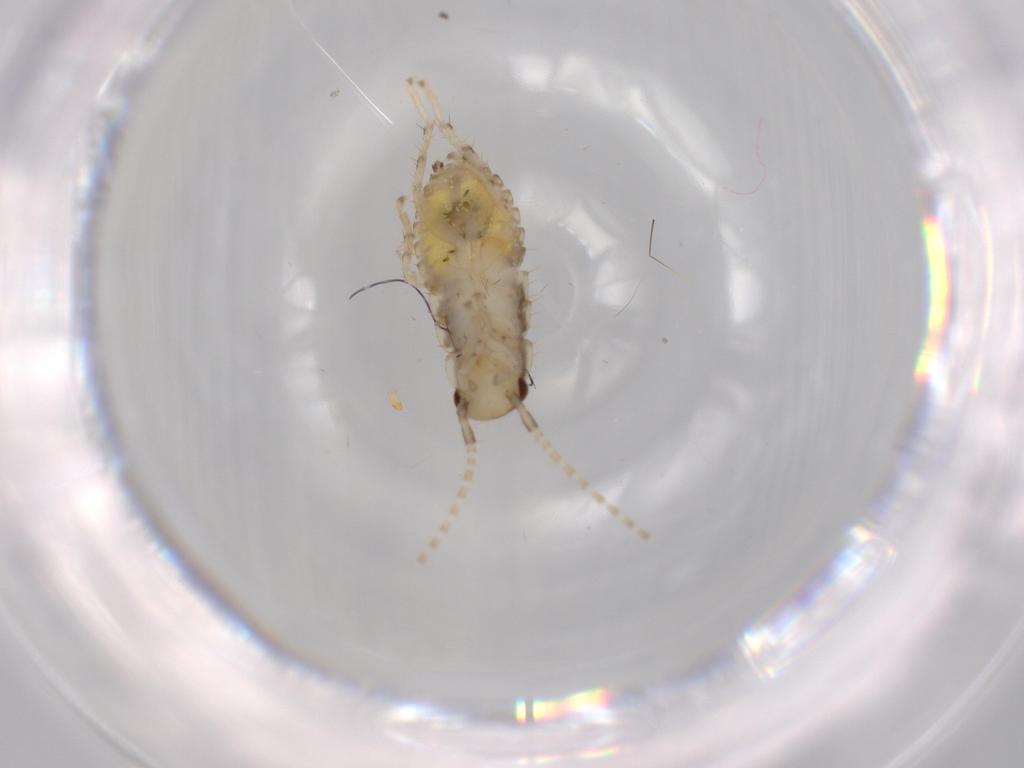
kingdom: Animalia
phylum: Arthropoda
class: Insecta
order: Blattodea
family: Ectobiidae
